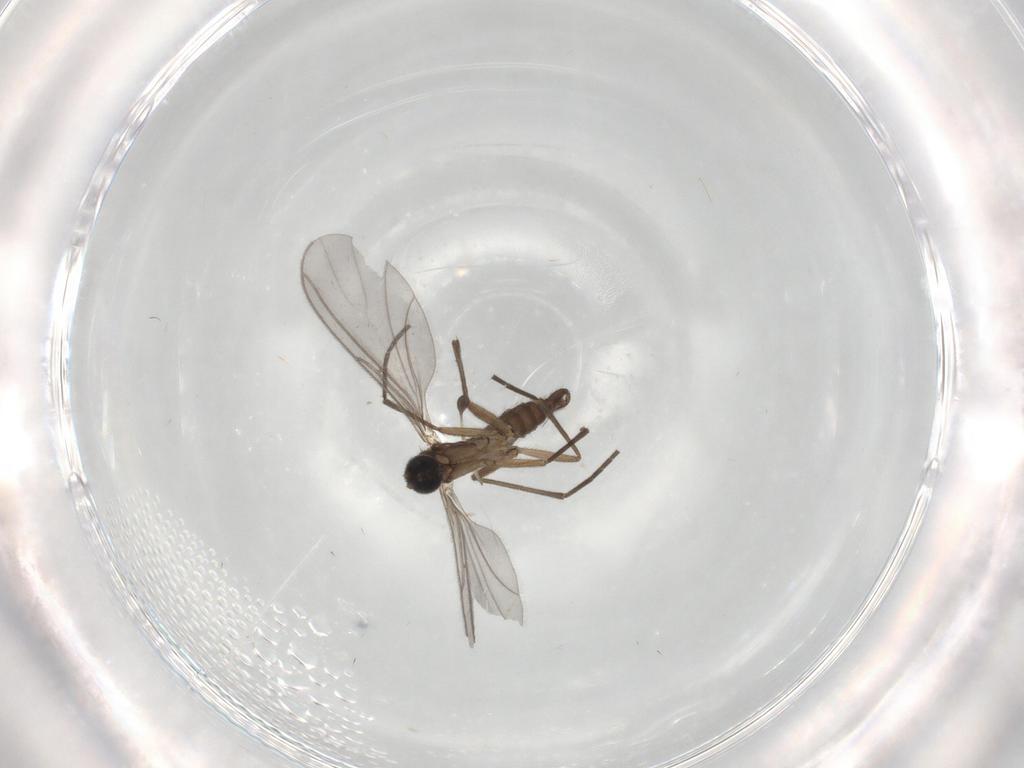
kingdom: Animalia
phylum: Arthropoda
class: Insecta
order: Diptera
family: Sciaridae
